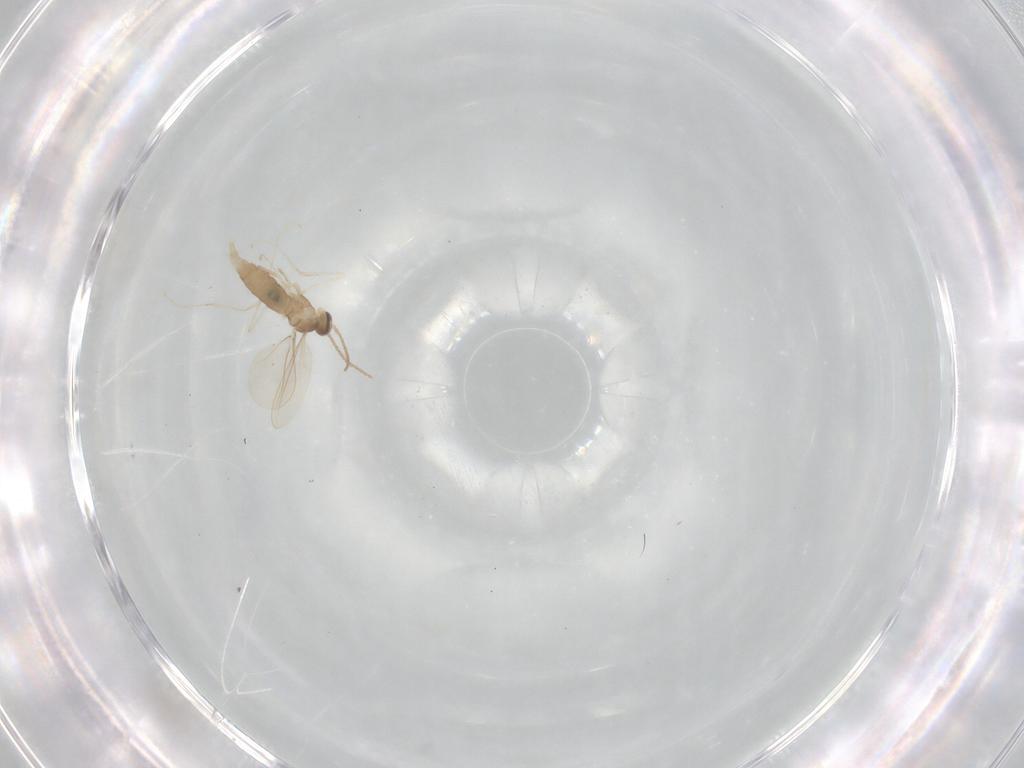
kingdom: Animalia
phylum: Arthropoda
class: Insecta
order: Diptera
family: Ceratopogonidae
